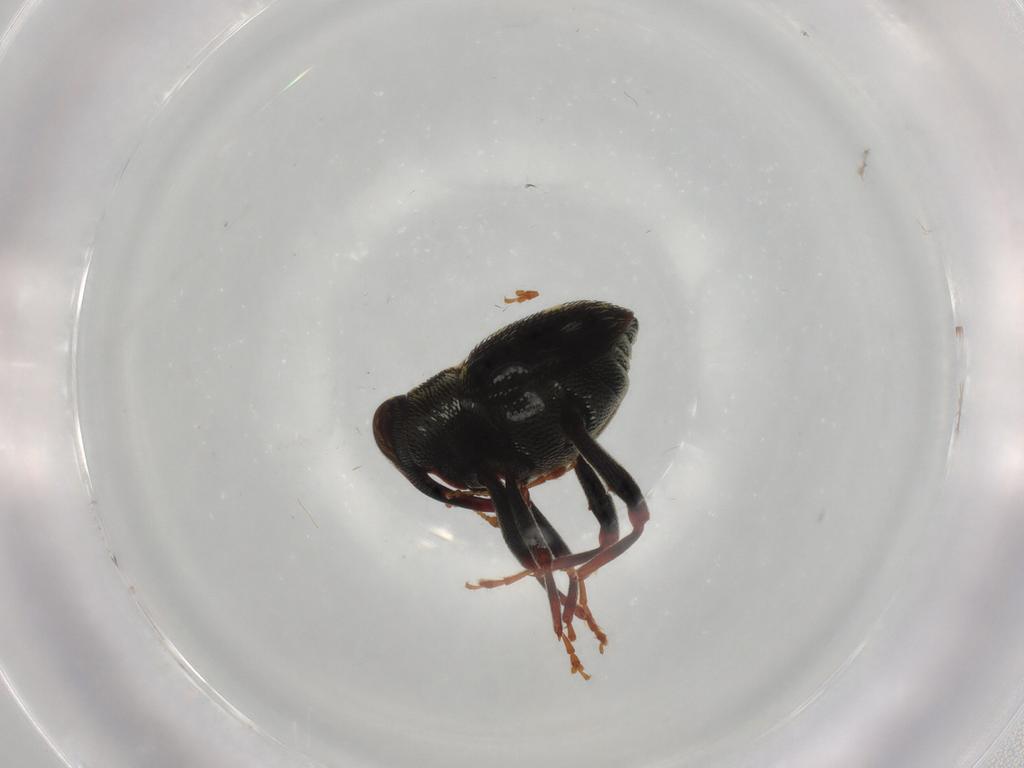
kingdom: Animalia
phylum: Arthropoda
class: Insecta
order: Coleoptera
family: Curculionidae
